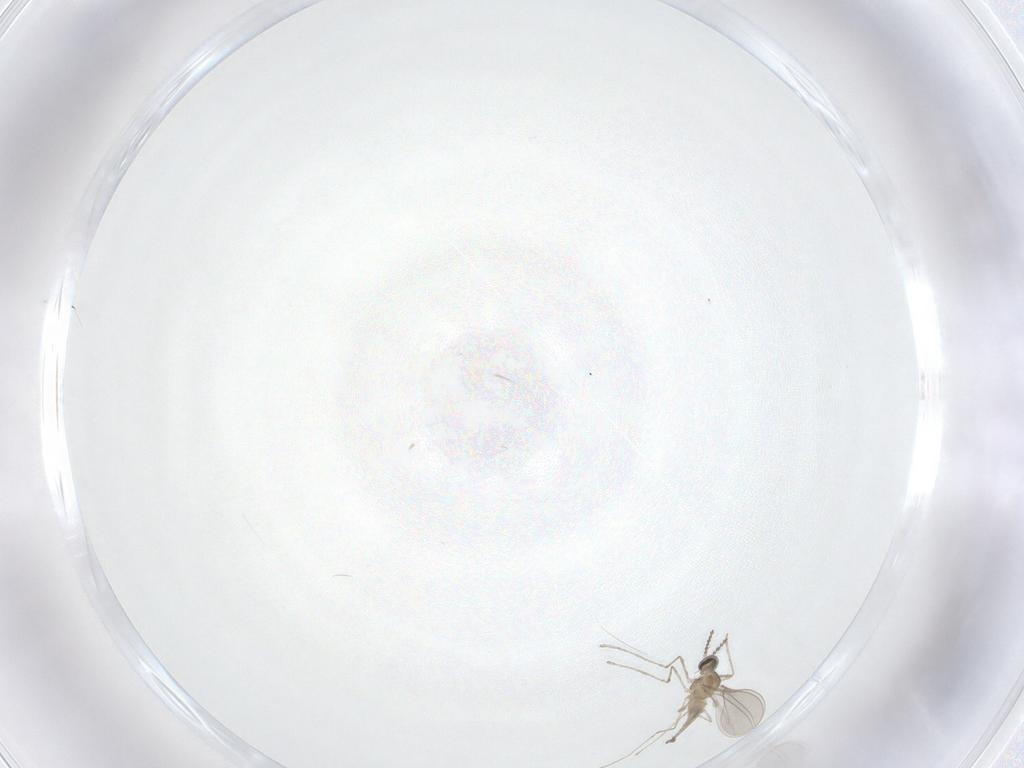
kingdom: Animalia
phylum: Arthropoda
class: Insecta
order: Diptera
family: Cecidomyiidae
